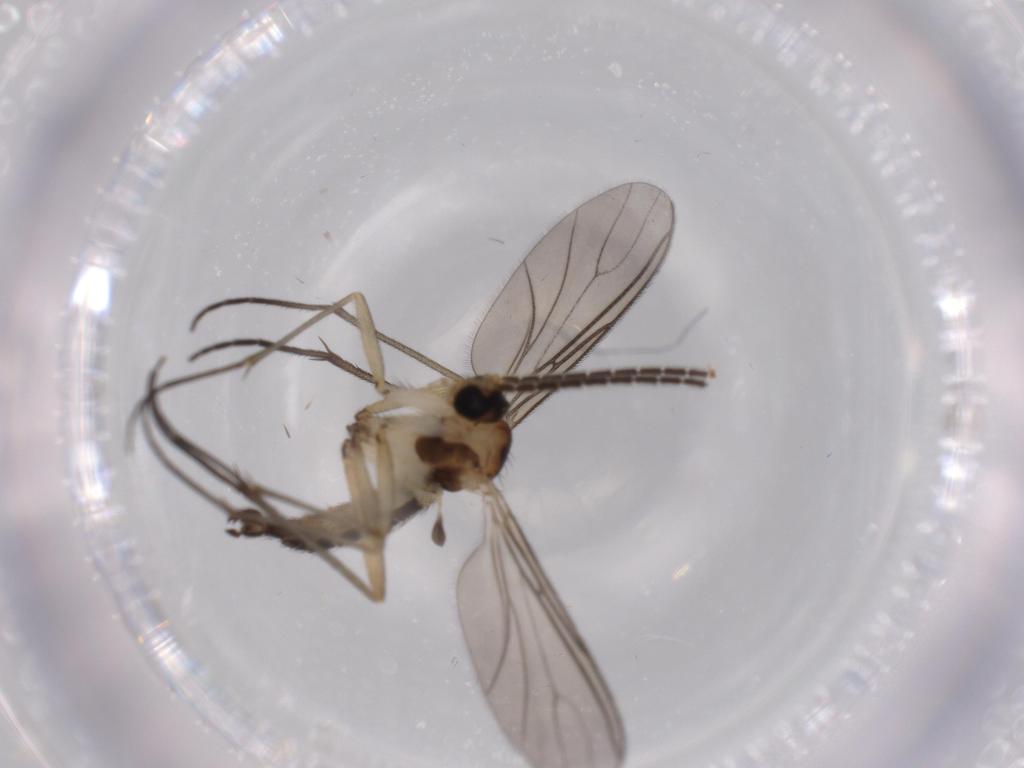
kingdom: Animalia
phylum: Arthropoda
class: Insecta
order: Diptera
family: Sciaridae
